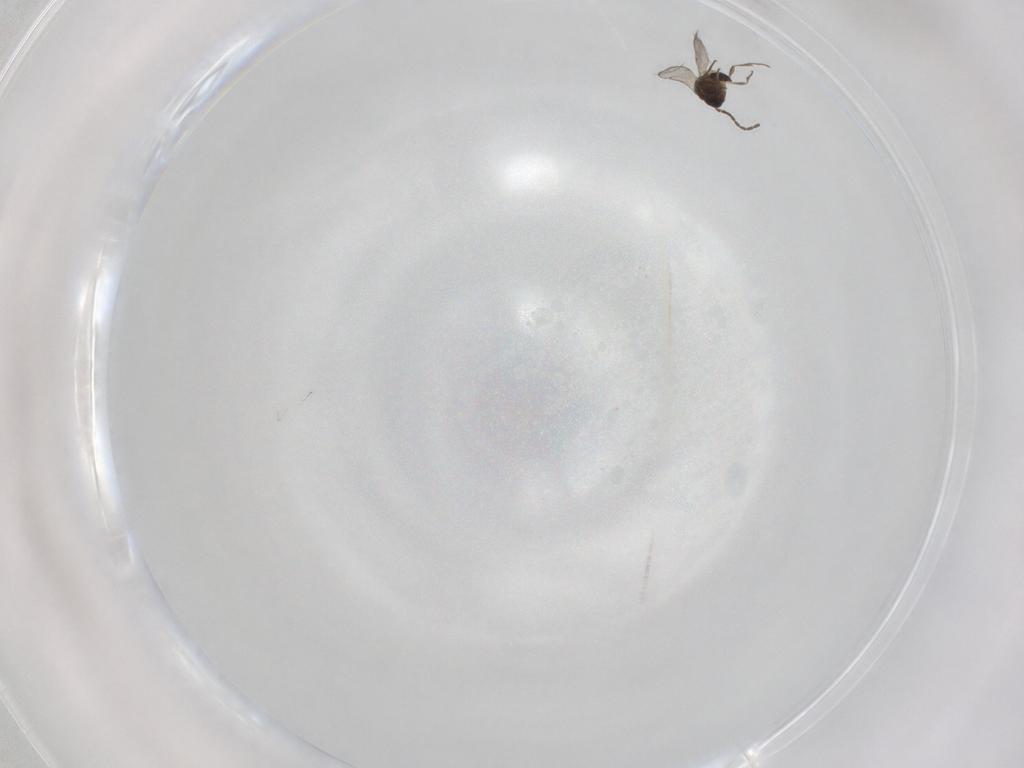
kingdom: Animalia
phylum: Arthropoda
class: Insecta
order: Hymenoptera
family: Scelionidae
